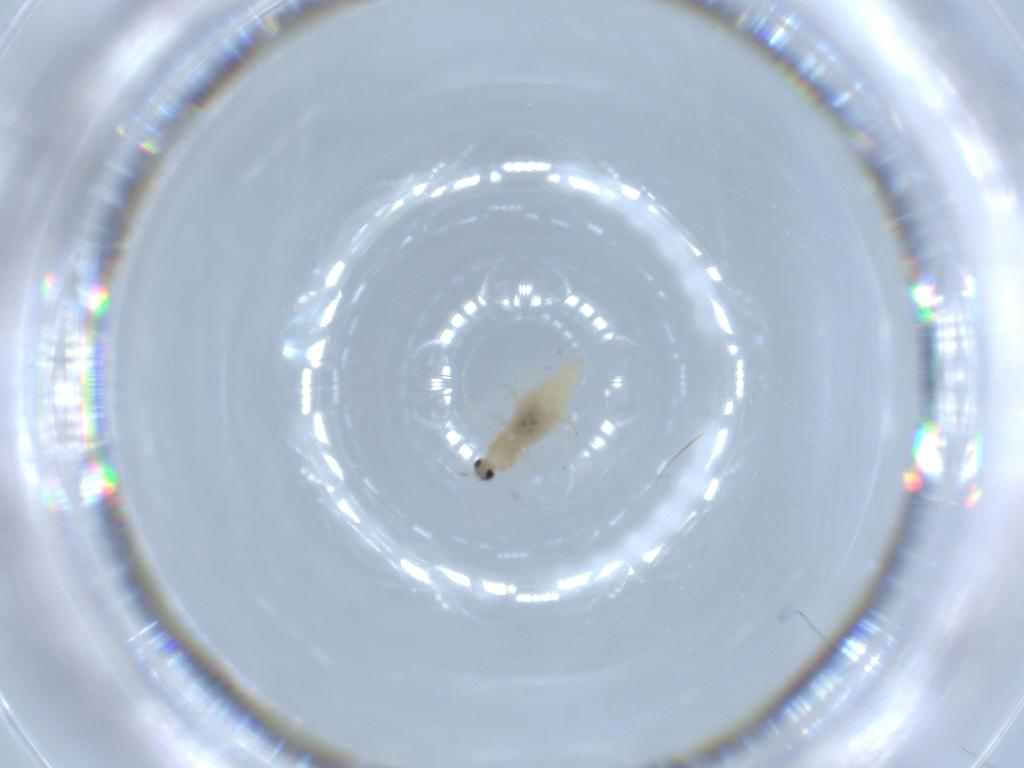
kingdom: Animalia
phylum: Arthropoda
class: Insecta
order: Diptera
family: Cecidomyiidae
